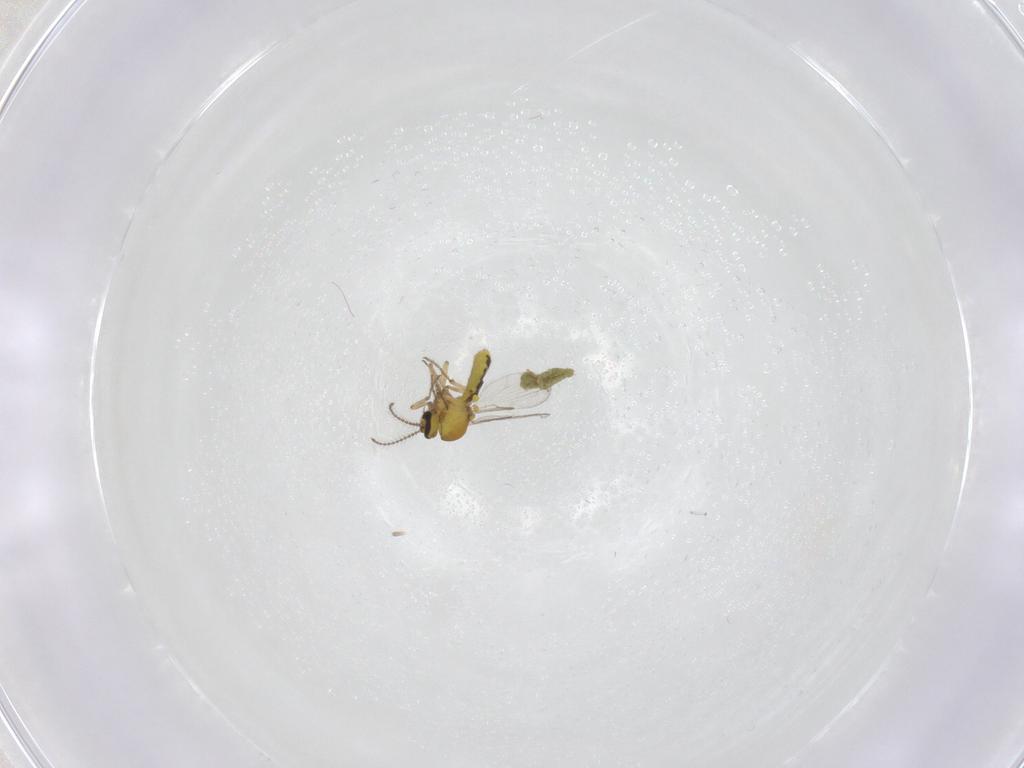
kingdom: Animalia
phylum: Arthropoda
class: Insecta
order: Diptera
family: Ceratopogonidae
